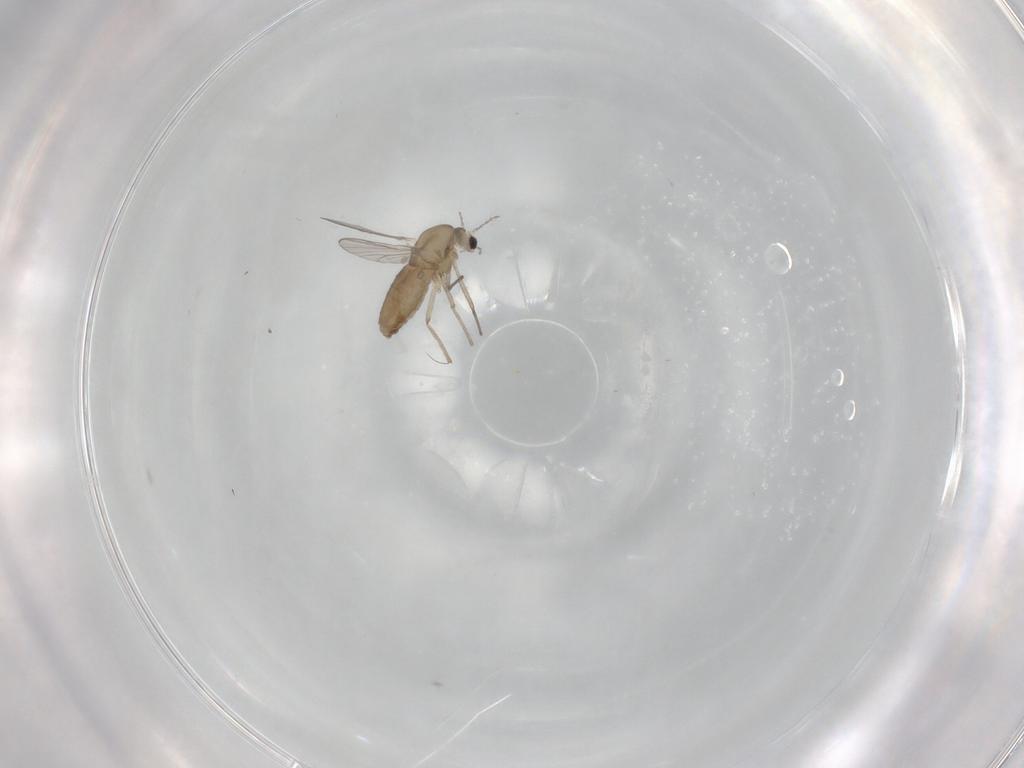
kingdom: Animalia
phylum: Arthropoda
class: Insecta
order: Diptera
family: Chironomidae
